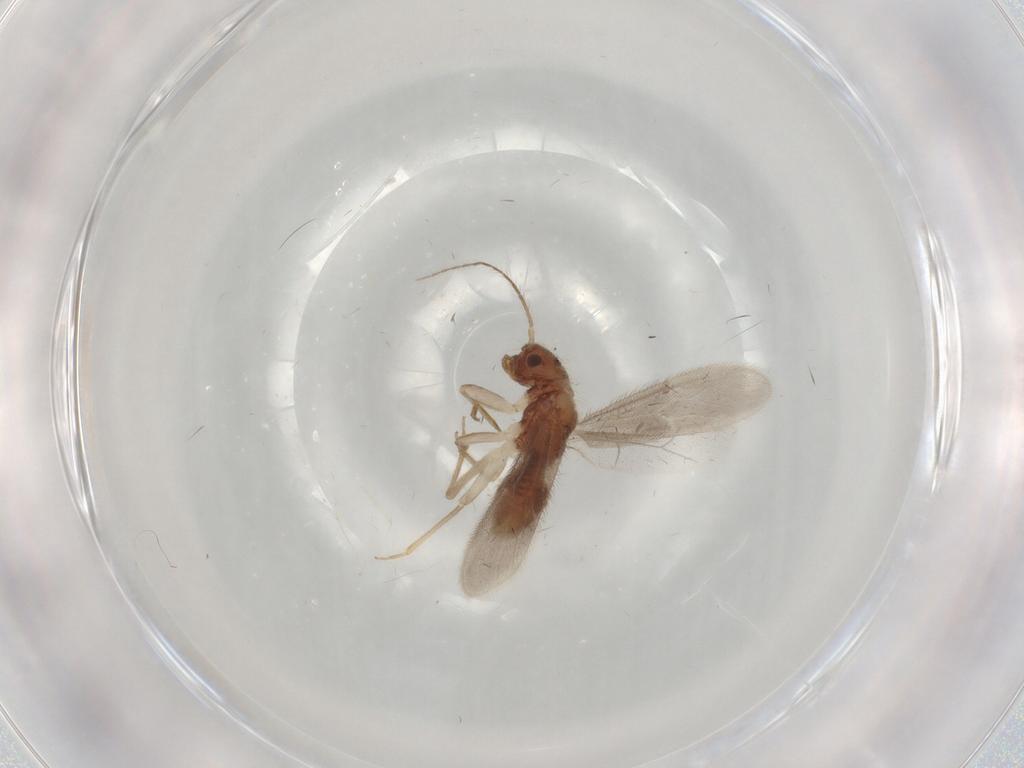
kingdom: Animalia
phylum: Arthropoda
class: Insecta
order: Psocodea
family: Archipsocidae
